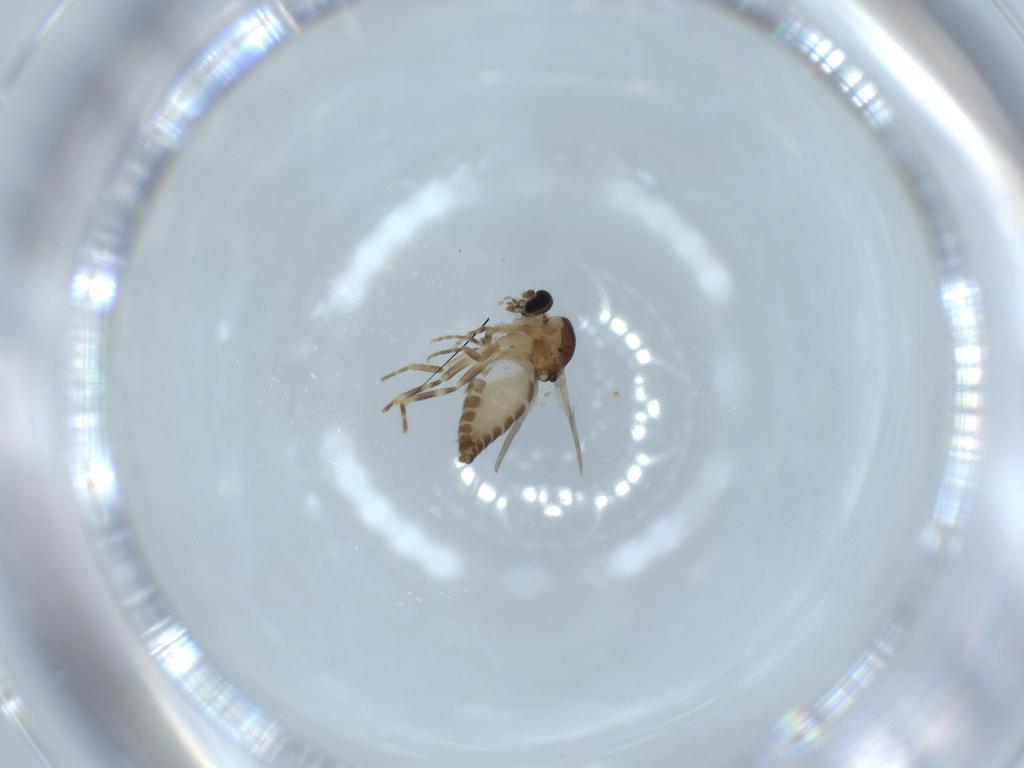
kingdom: Animalia
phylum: Arthropoda
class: Insecta
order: Diptera
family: Ceratopogonidae
